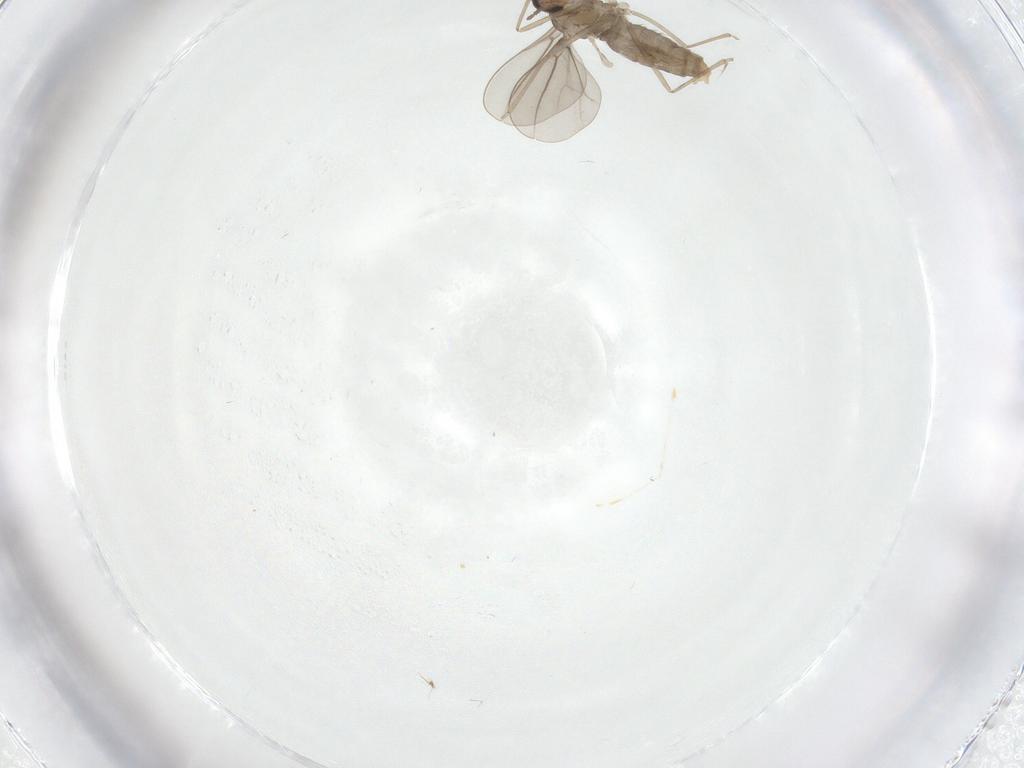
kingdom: Animalia
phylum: Arthropoda
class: Insecta
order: Diptera
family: Cecidomyiidae
